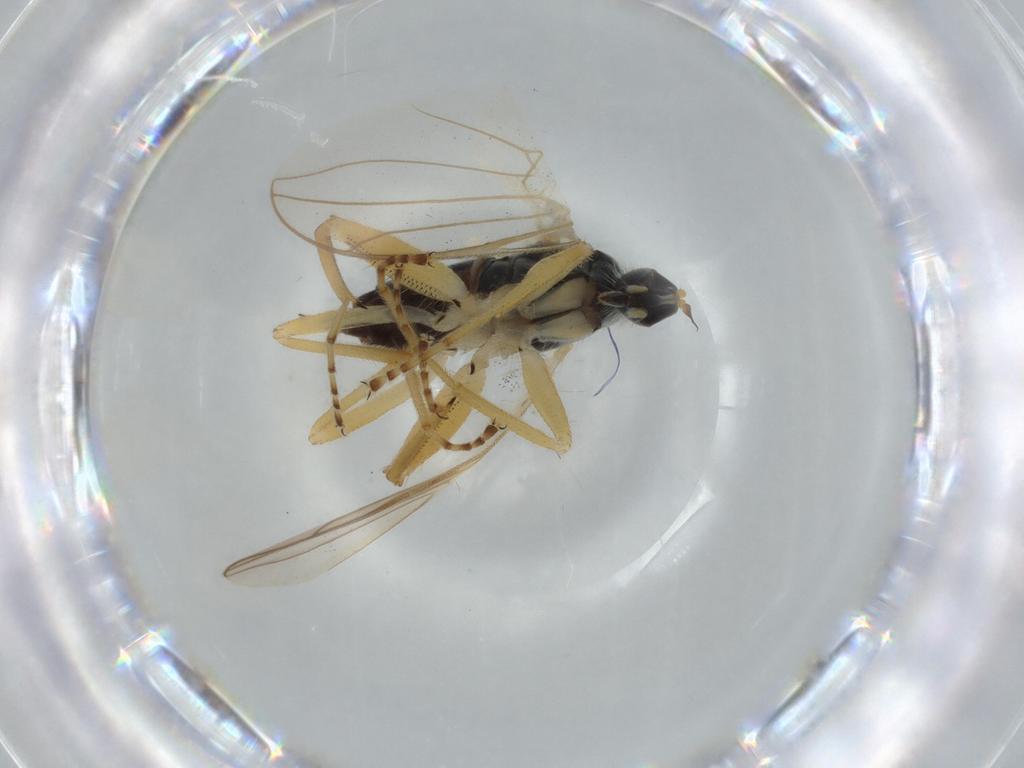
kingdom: Animalia
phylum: Arthropoda
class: Insecta
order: Diptera
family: Hybotidae
